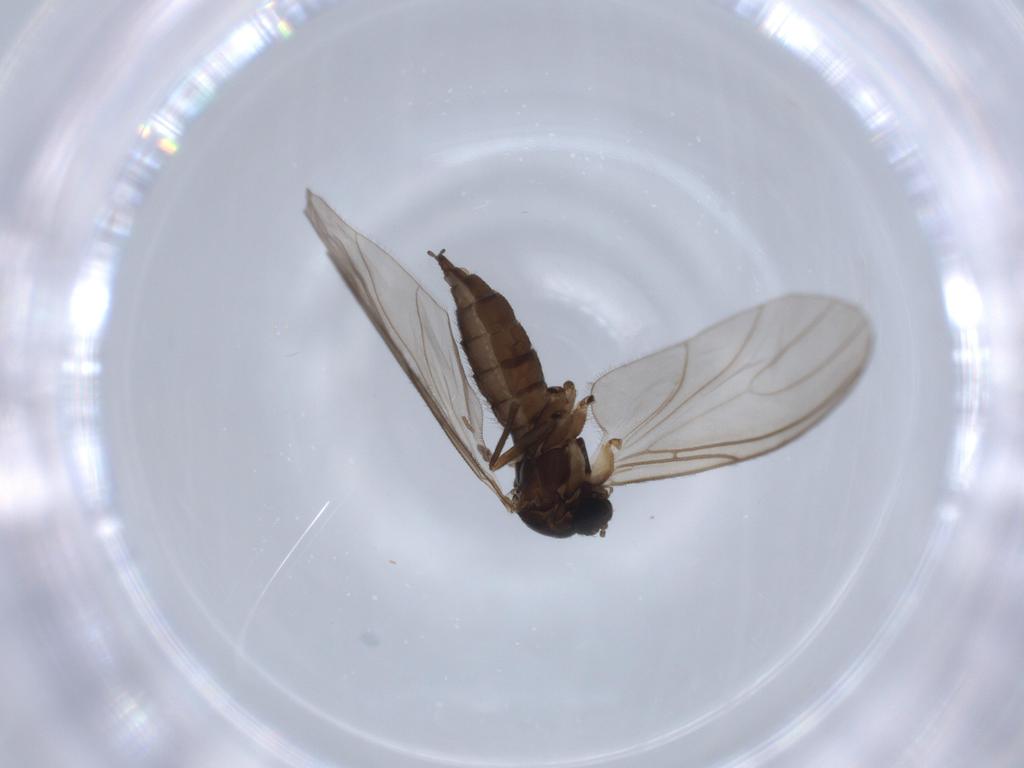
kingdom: Animalia
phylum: Arthropoda
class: Insecta
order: Diptera
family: Sciaridae
